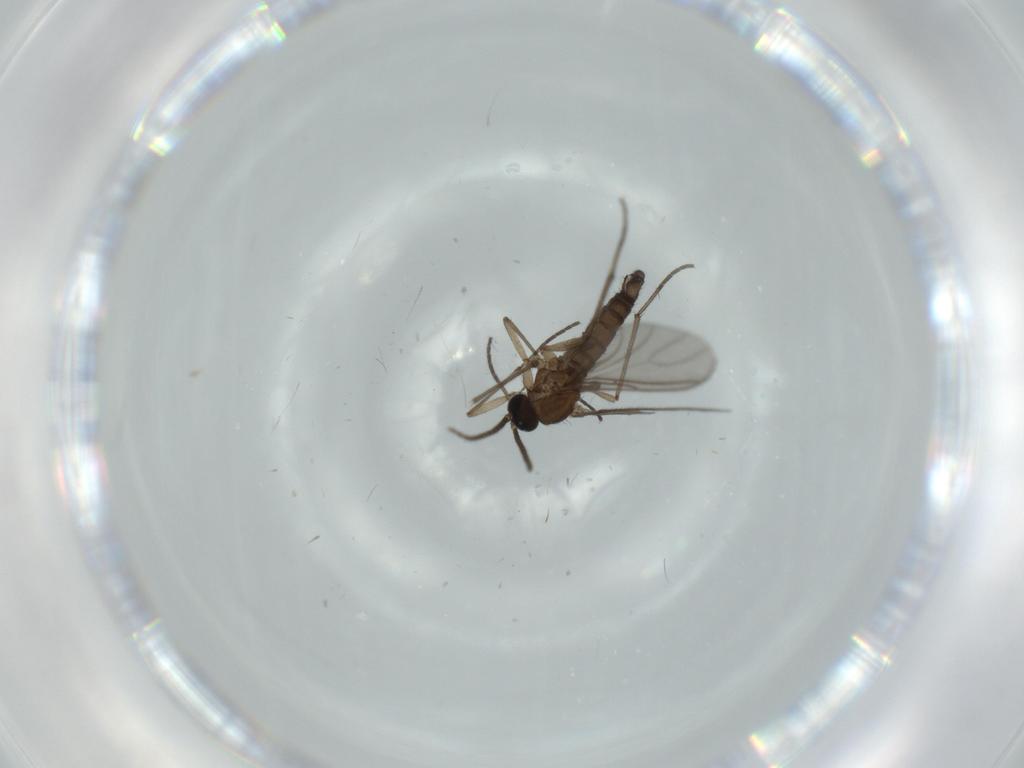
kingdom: Animalia
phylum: Arthropoda
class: Insecta
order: Diptera
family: Sciaridae
